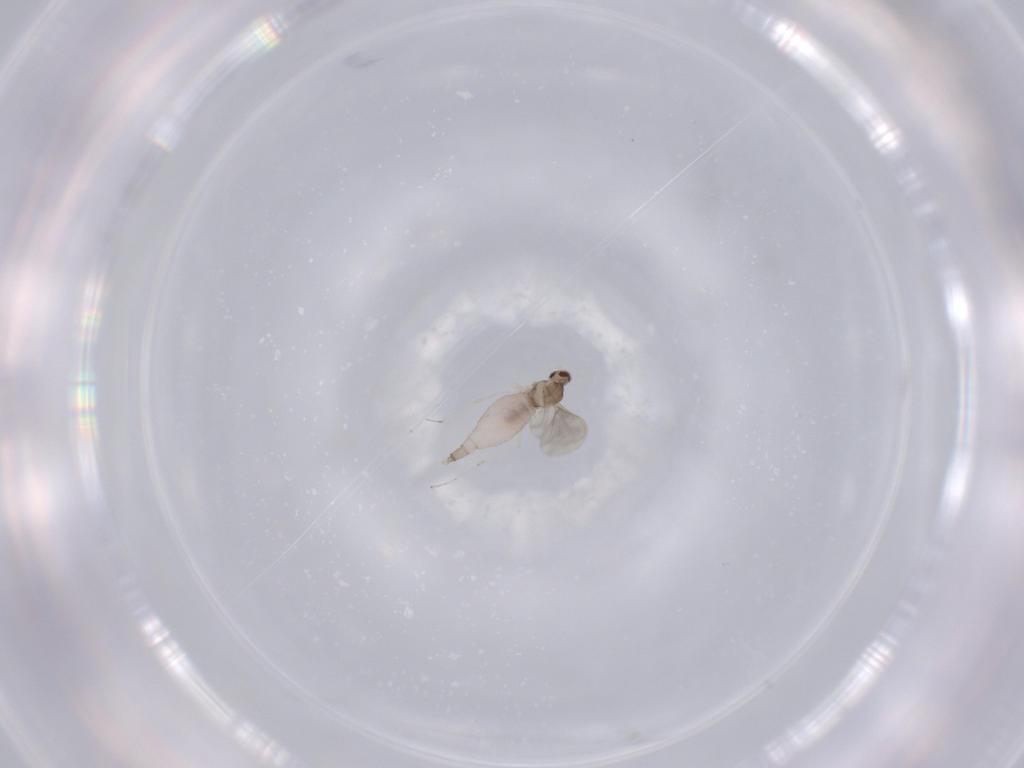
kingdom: Animalia
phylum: Arthropoda
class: Insecta
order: Diptera
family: Cecidomyiidae
